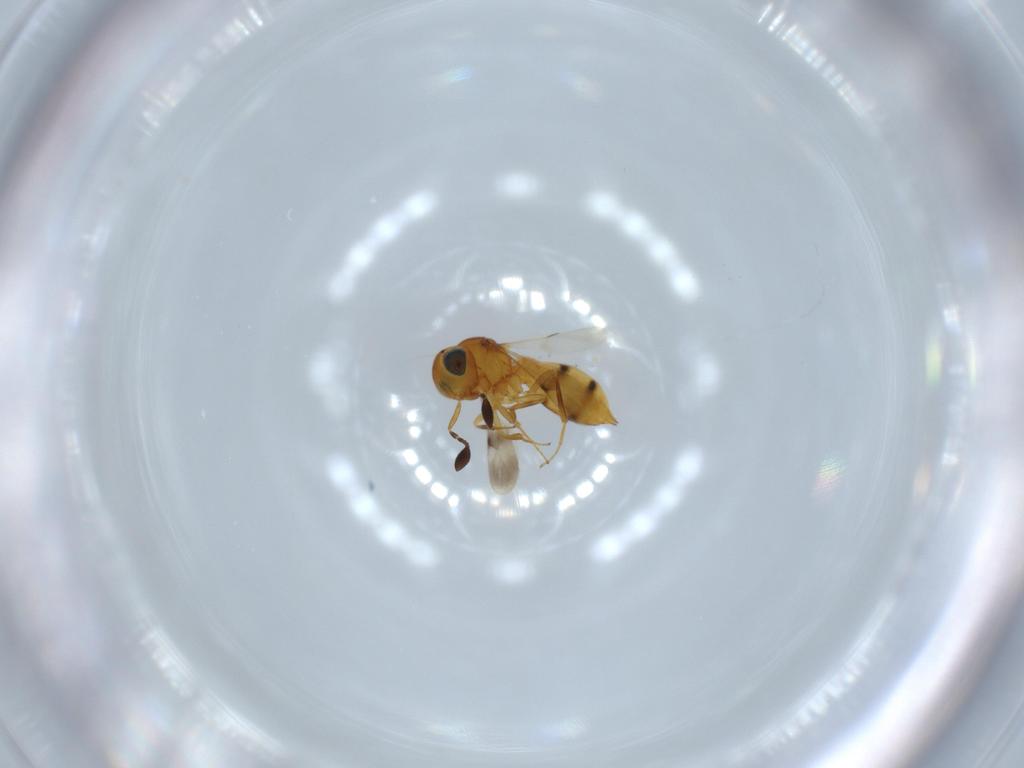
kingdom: Animalia
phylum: Arthropoda
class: Insecta
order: Hymenoptera
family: Scelionidae
